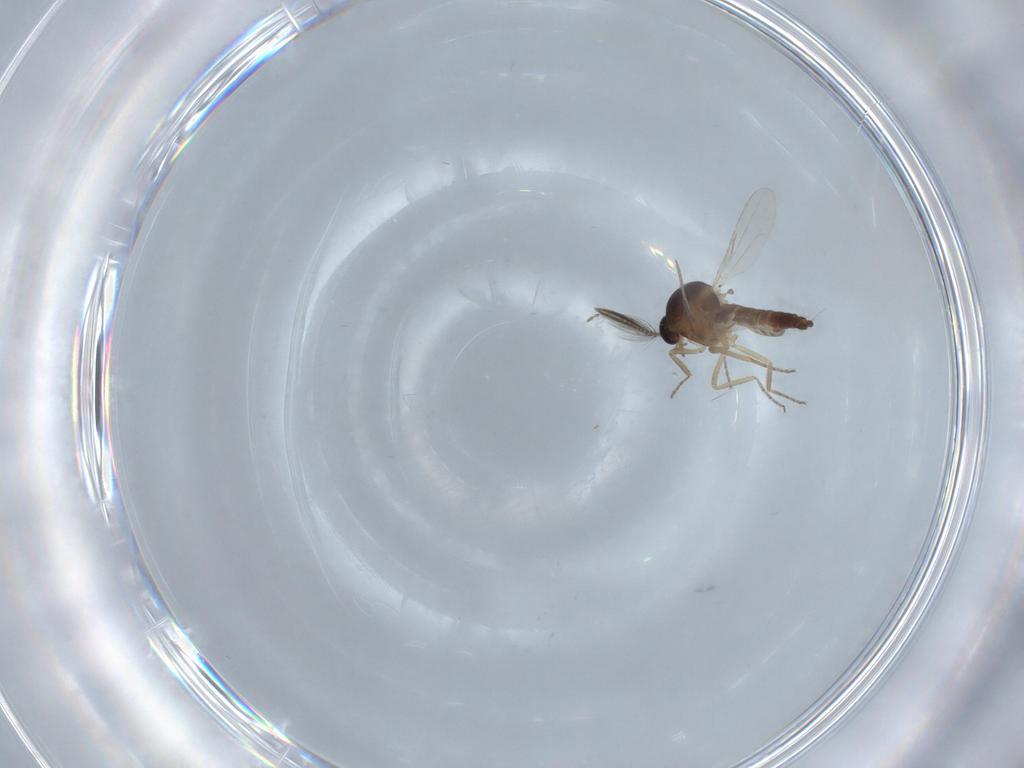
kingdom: Animalia
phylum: Arthropoda
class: Insecta
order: Diptera
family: Ceratopogonidae
